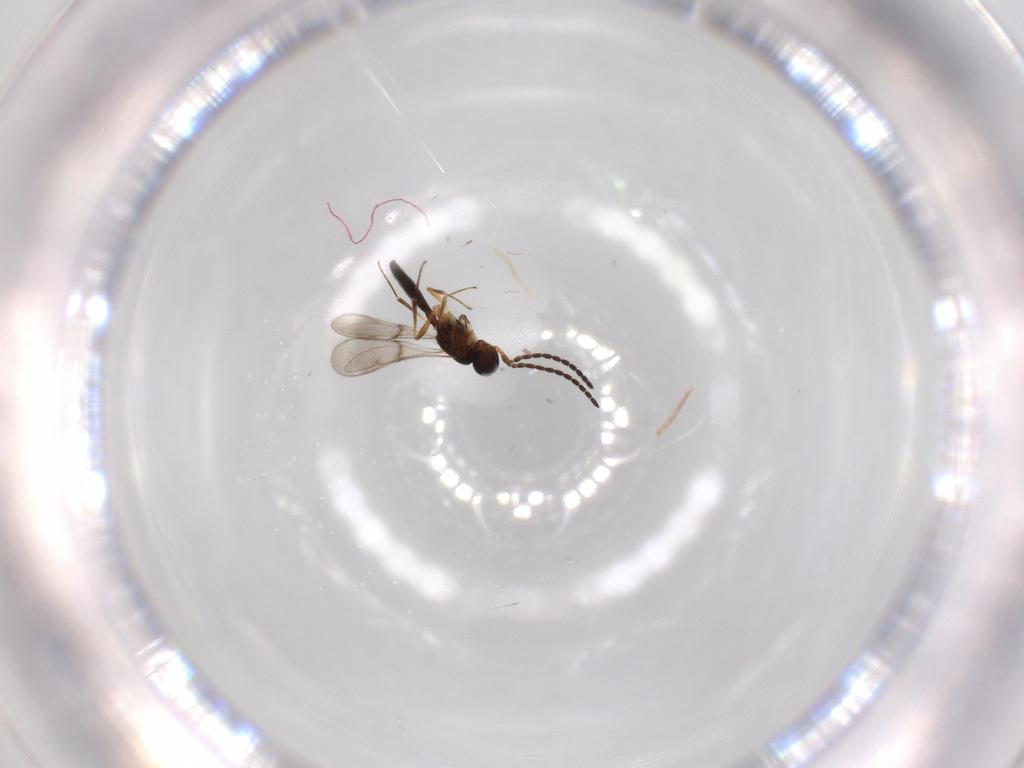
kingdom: Animalia
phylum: Arthropoda
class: Insecta
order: Hymenoptera
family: Scelionidae
